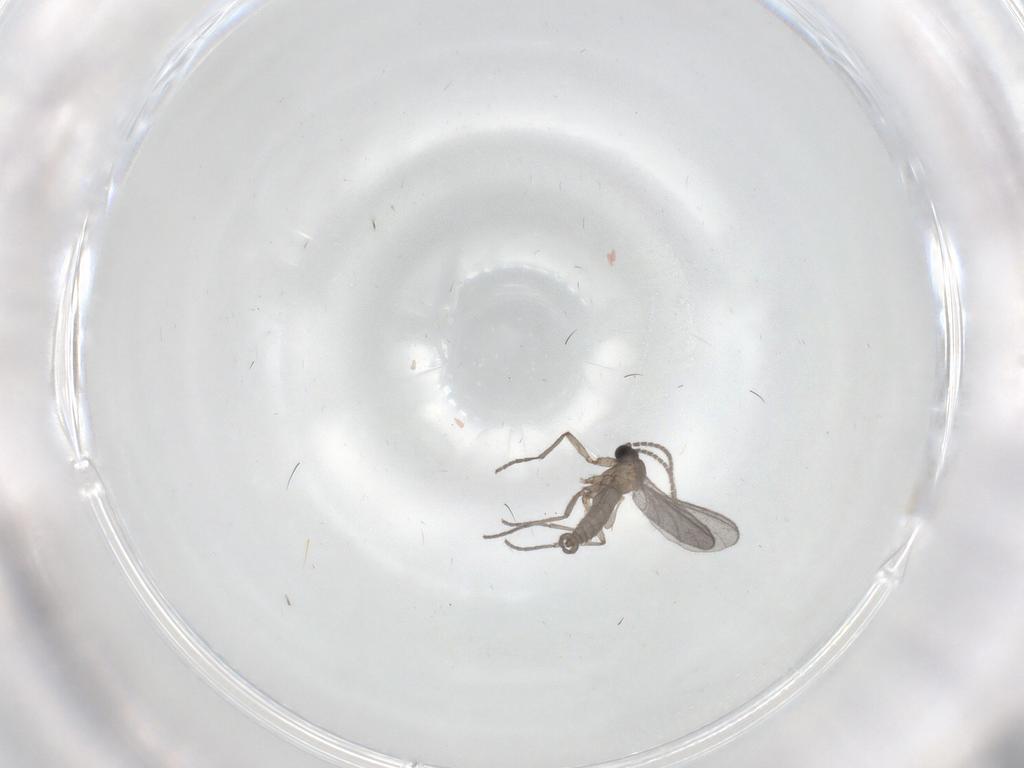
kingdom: Animalia
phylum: Arthropoda
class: Insecta
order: Diptera
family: Sciaridae
